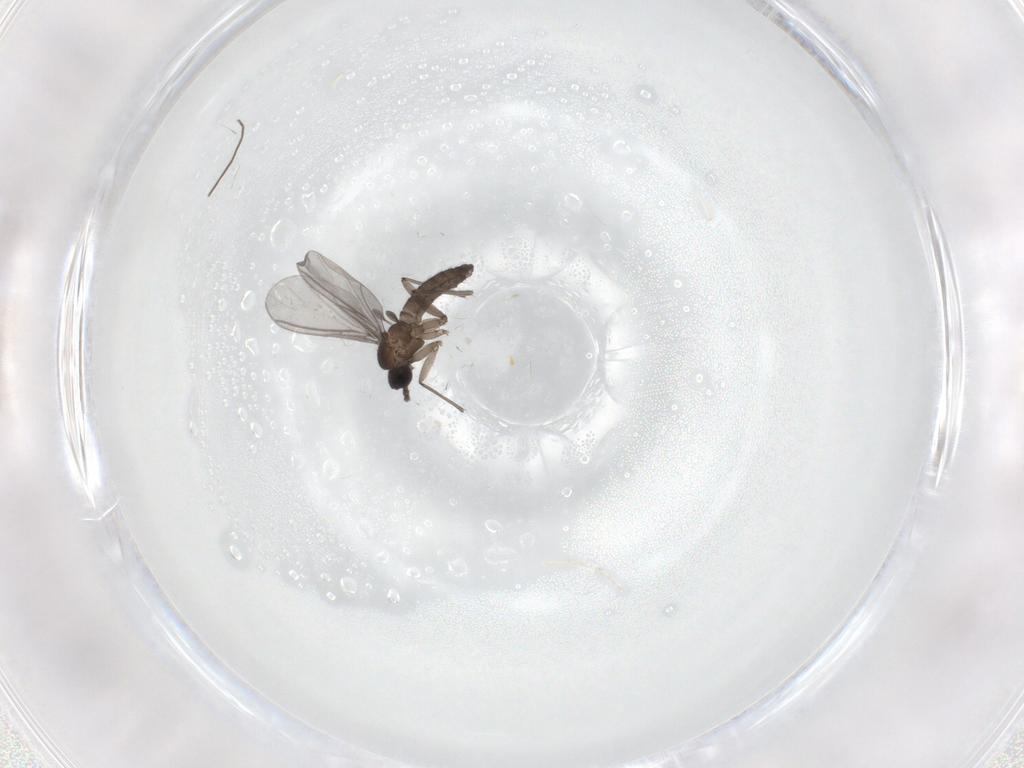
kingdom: Animalia
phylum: Arthropoda
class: Insecta
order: Diptera
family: Chironomidae
